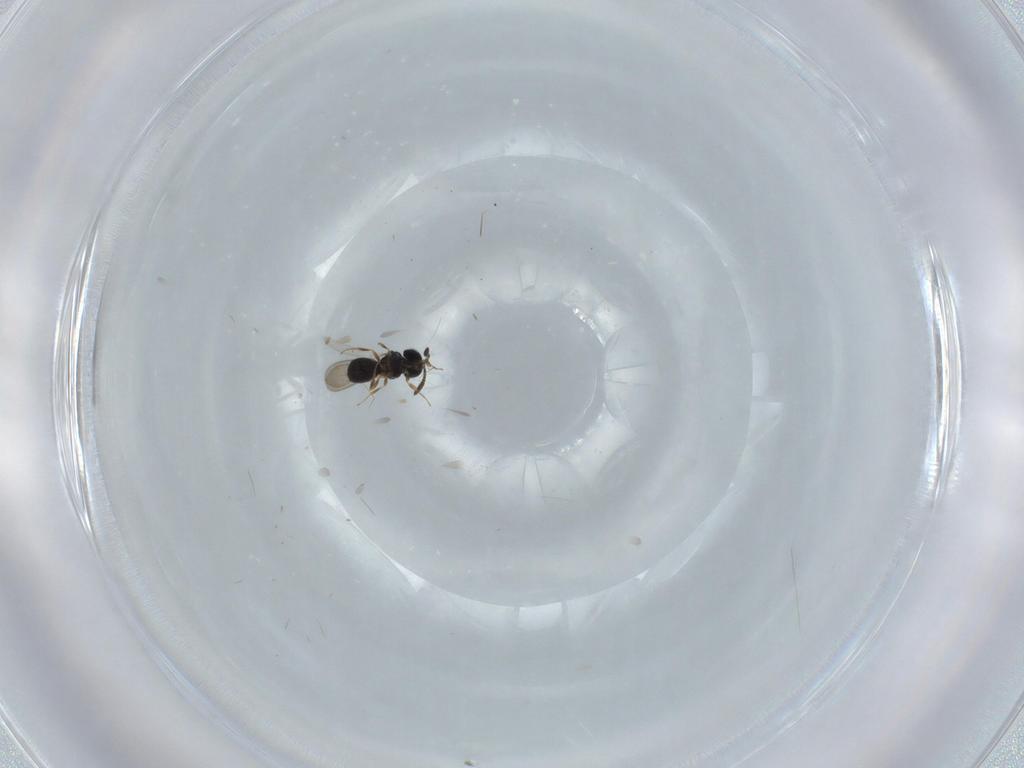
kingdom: Animalia
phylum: Arthropoda
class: Insecta
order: Hymenoptera
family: Scelionidae
